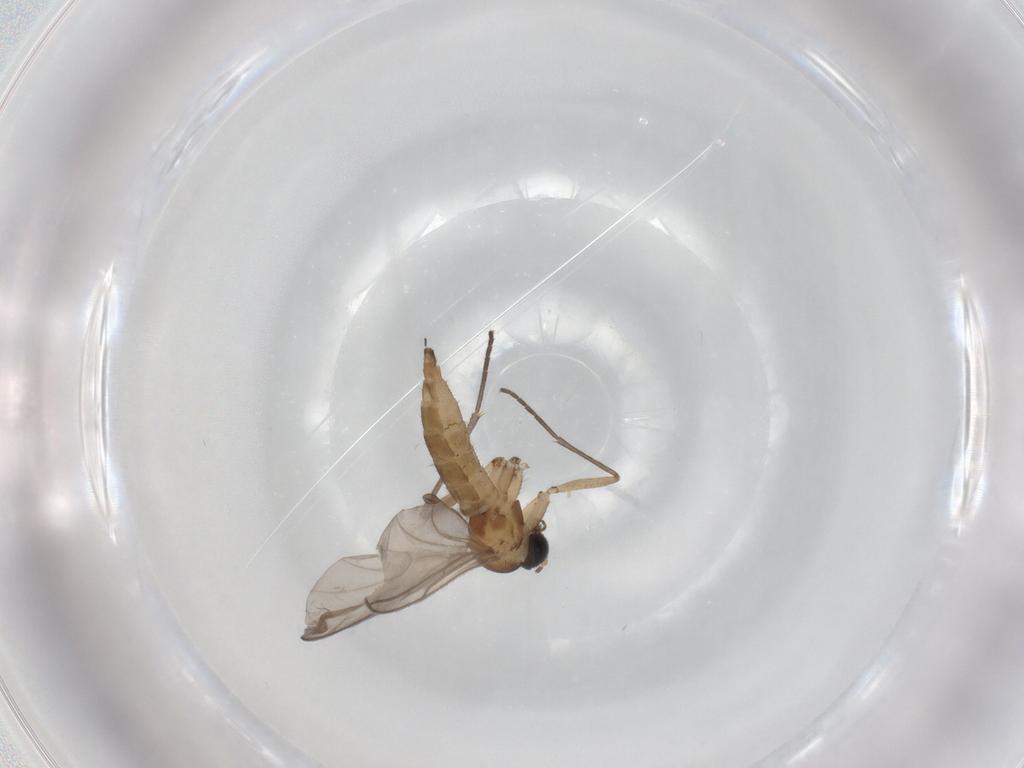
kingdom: Animalia
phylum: Arthropoda
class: Insecta
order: Diptera
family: Sciaridae
